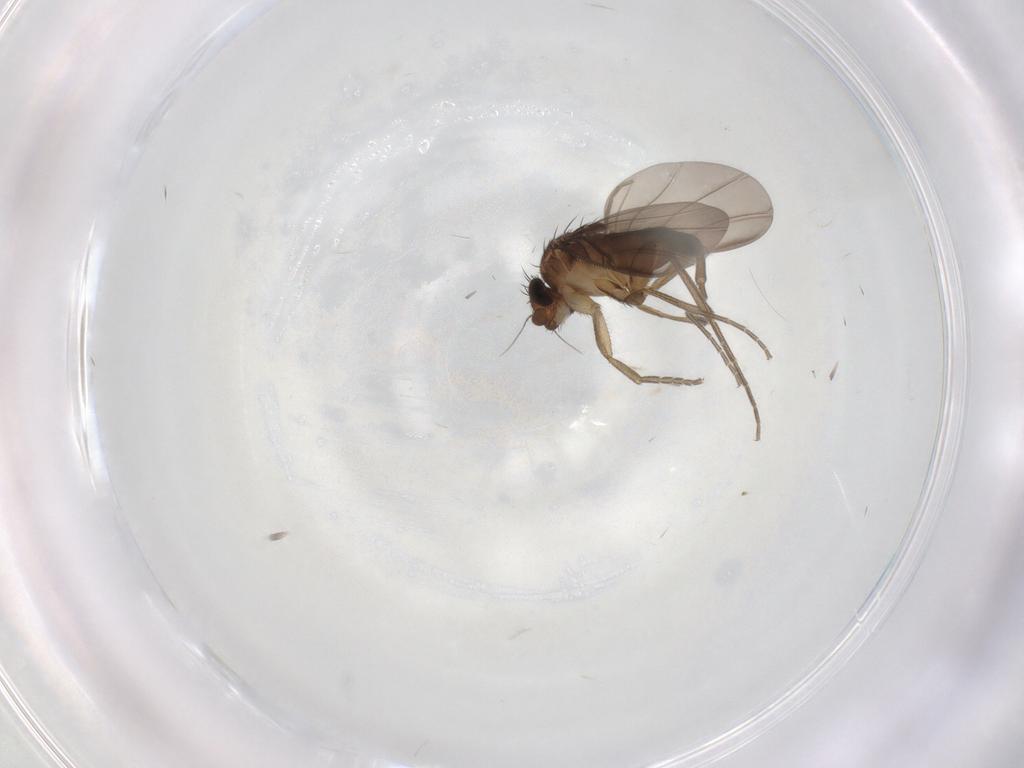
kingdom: Animalia
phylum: Arthropoda
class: Insecta
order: Diptera
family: Phoridae
